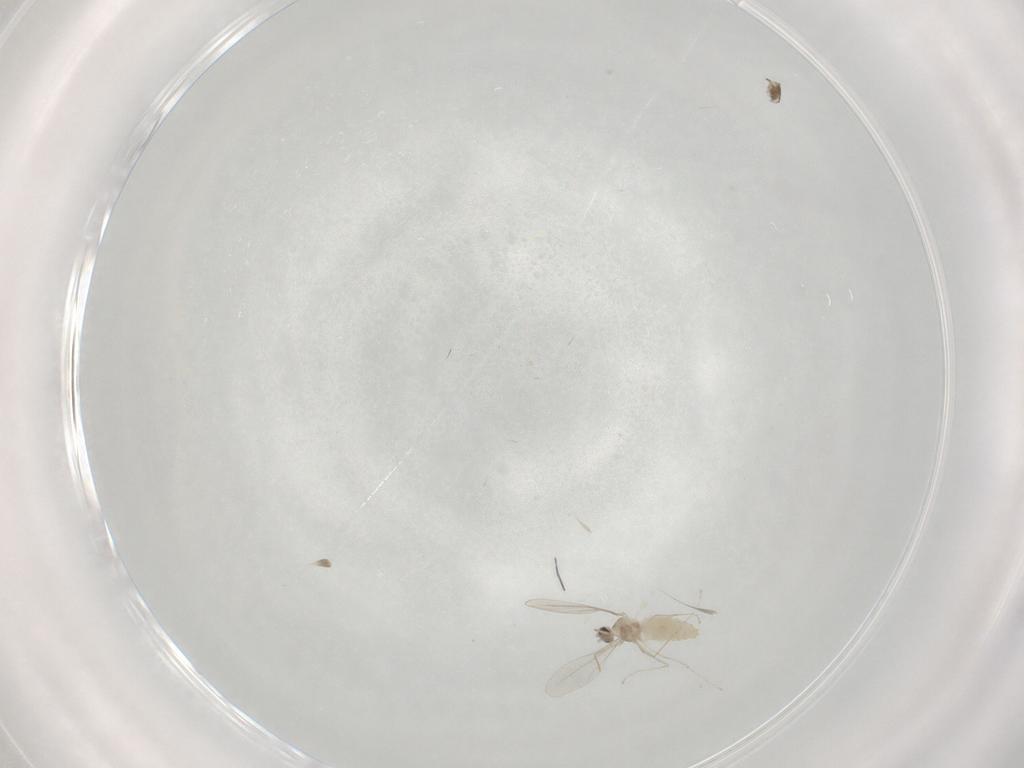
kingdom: Animalia
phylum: Arthropoda
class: Insecta
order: Diptera
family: Cecidomyiidae
